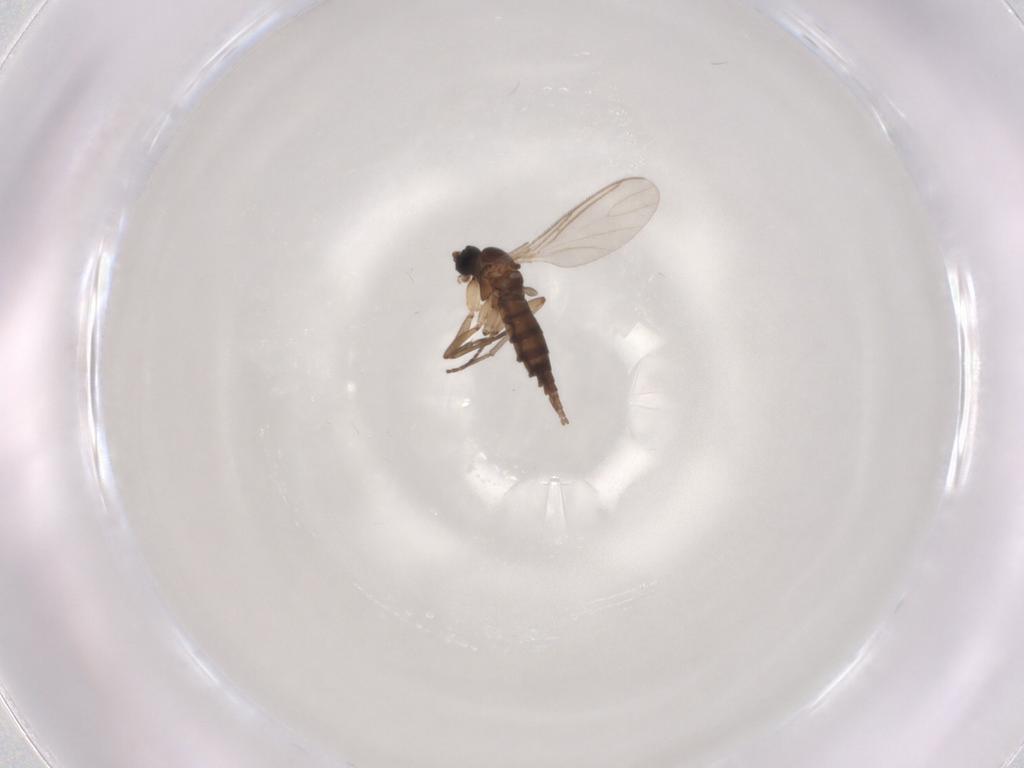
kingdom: Animalia
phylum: Arthropoda
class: Insecta
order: Diptera
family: Sciaridae
